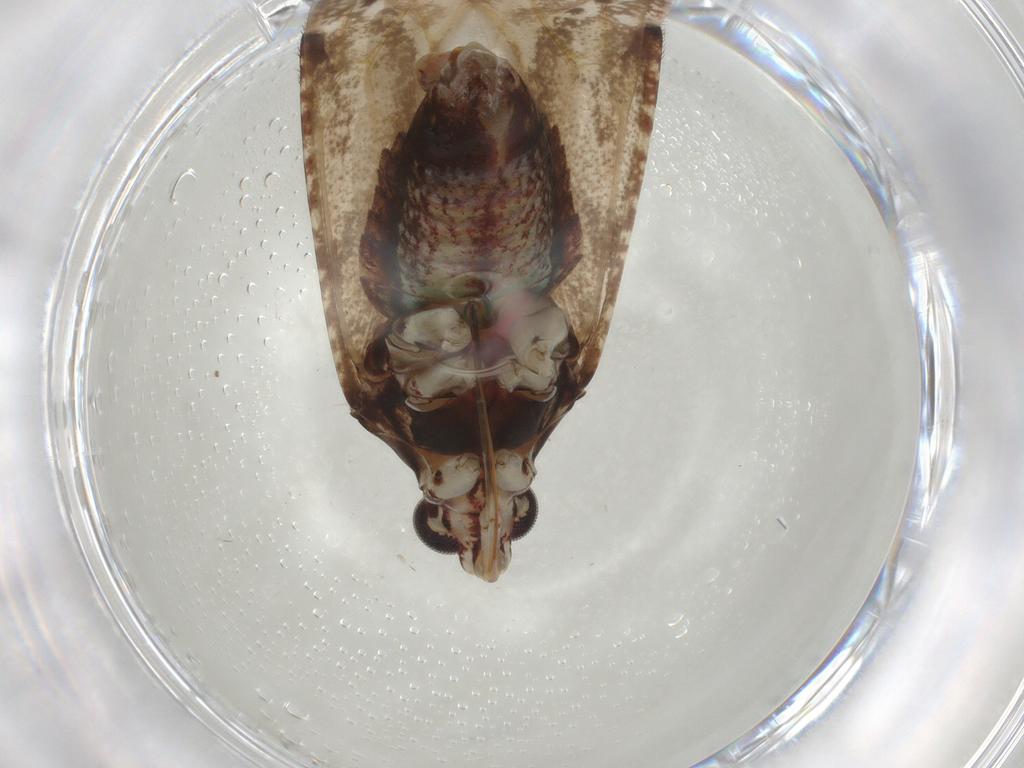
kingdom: Animalia
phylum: Arthropoda
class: Insecta
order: Hemiptera
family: Miridae
